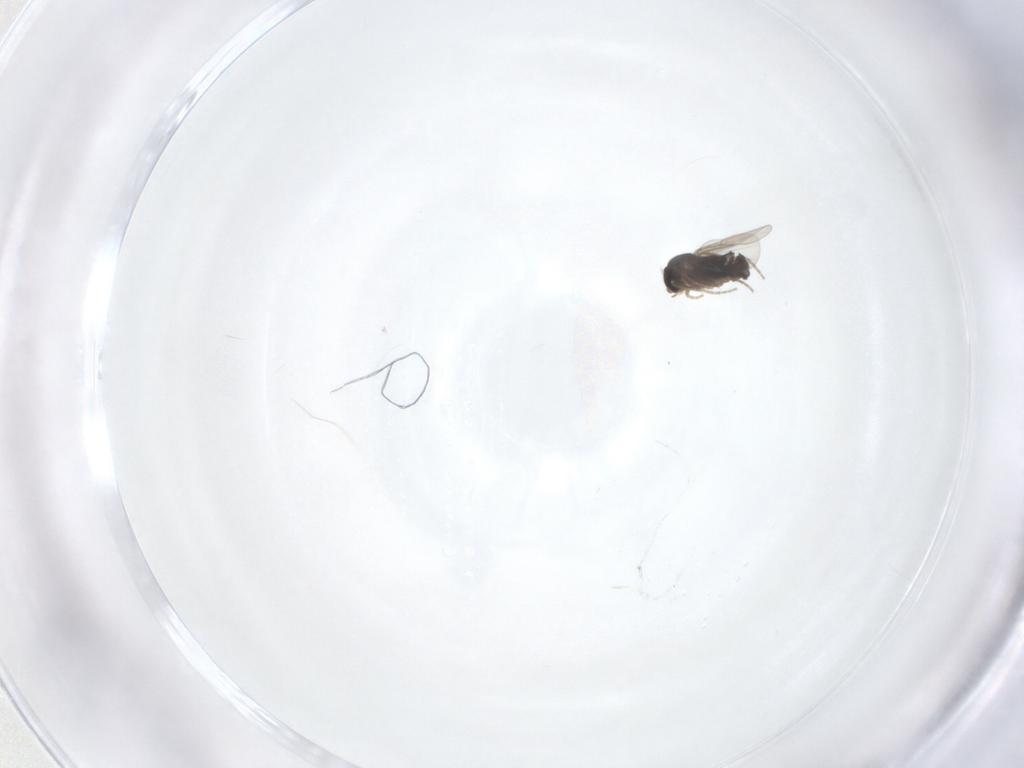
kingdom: Animalia
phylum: Arthropoda
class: Insecta
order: Diptera
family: Phoridae
